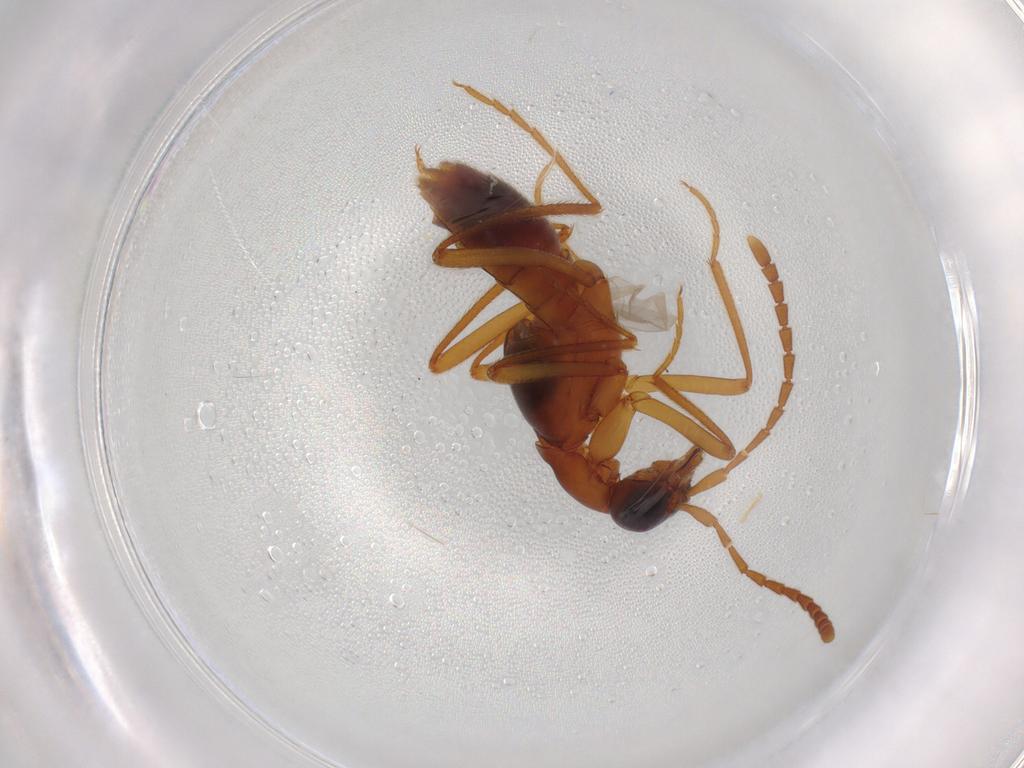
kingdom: Animalia
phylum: Arthropoda
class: Insecta
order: Coleoptera
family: Staphylinidae
